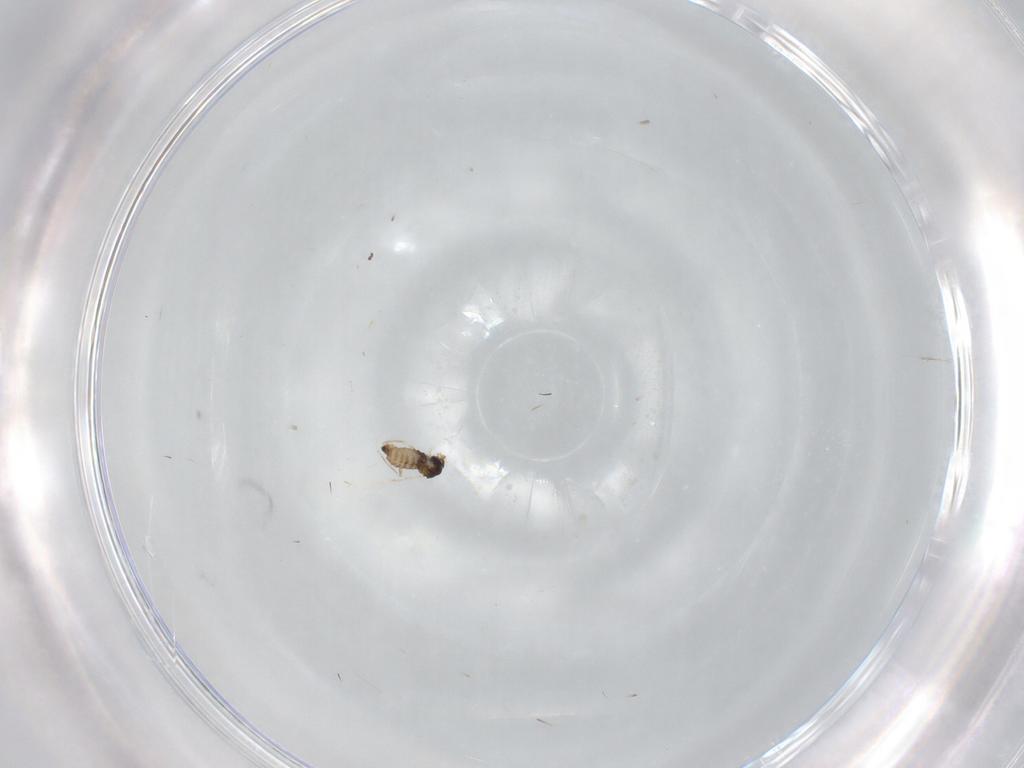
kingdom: Animalia
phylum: Arthropoda
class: Insecta
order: Diptera
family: Cecidomyiidae
